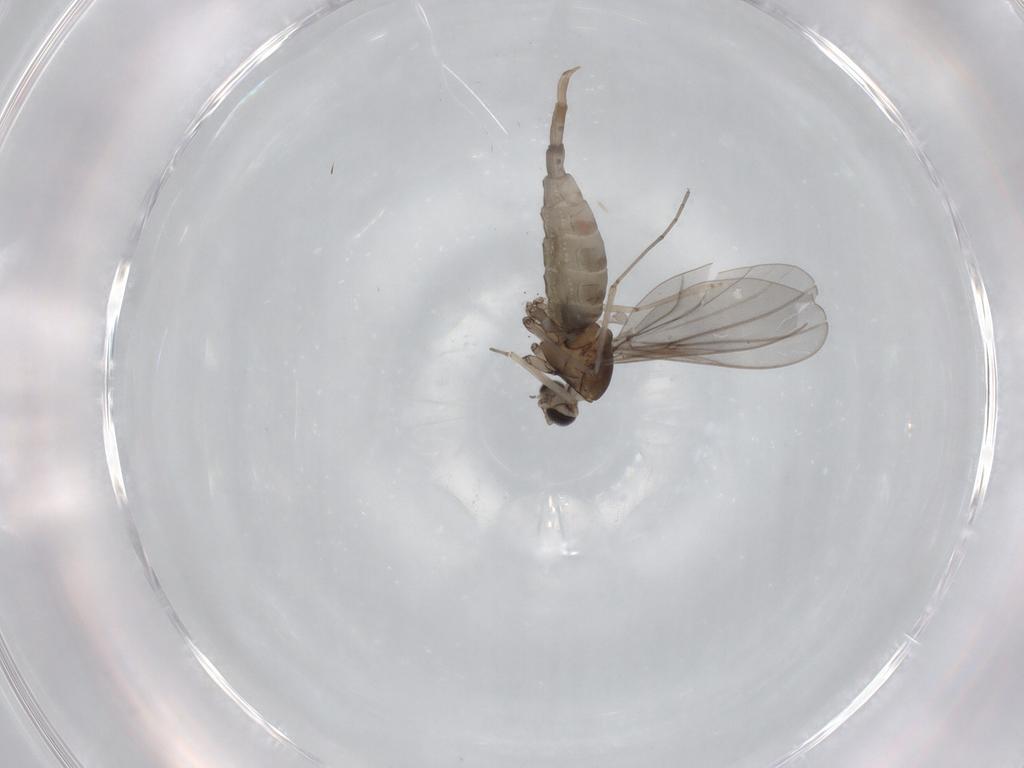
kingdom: Animalia
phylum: Arthropoda
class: Insecta
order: Diptera
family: Cecidomyiidae
